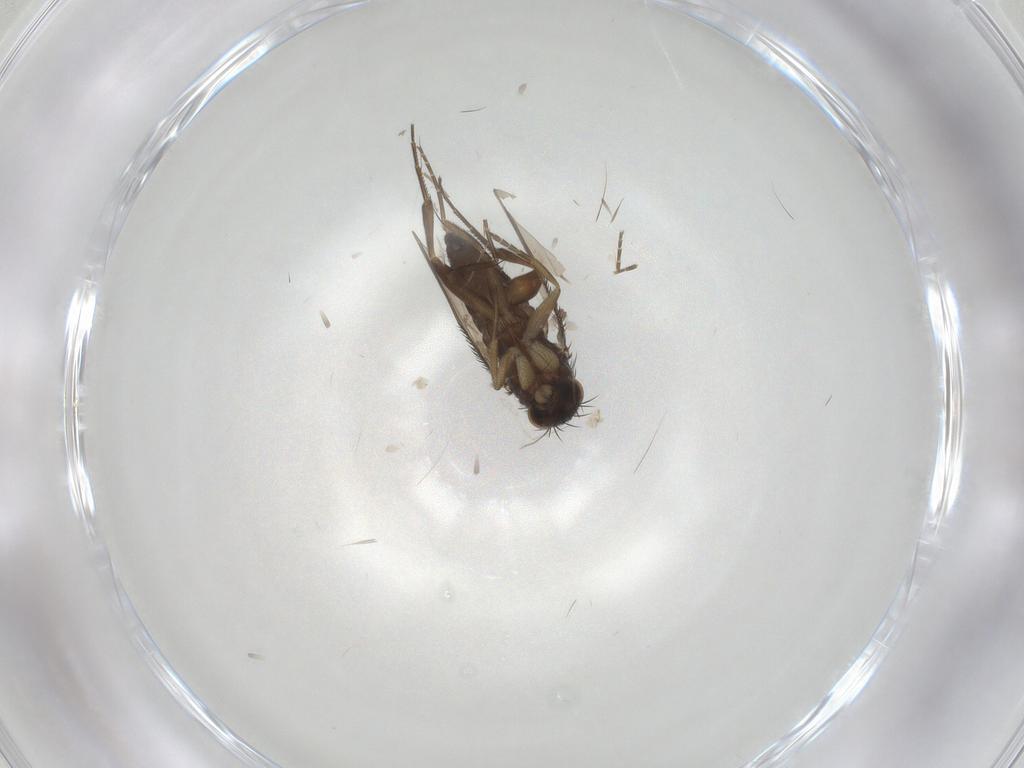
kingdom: Animalia
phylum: Arthropoda
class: Insecta
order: Diptera
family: Phoridae
